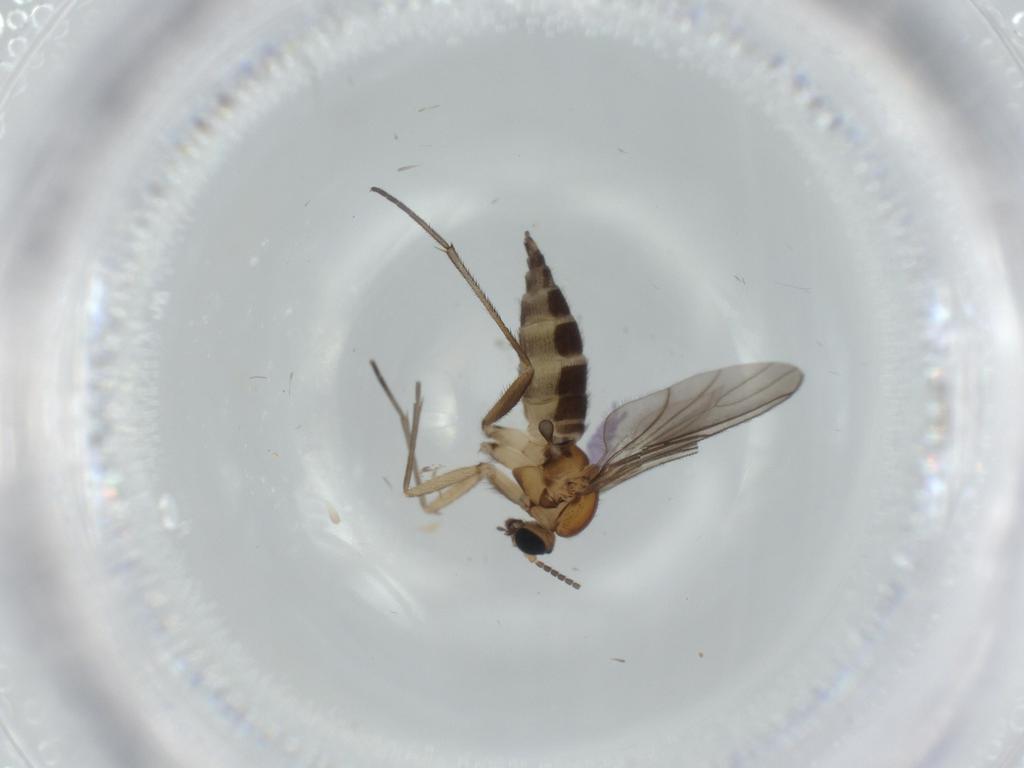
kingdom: Animalia
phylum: Arthropoda
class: Insecta
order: Diptera
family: Sciaridae
